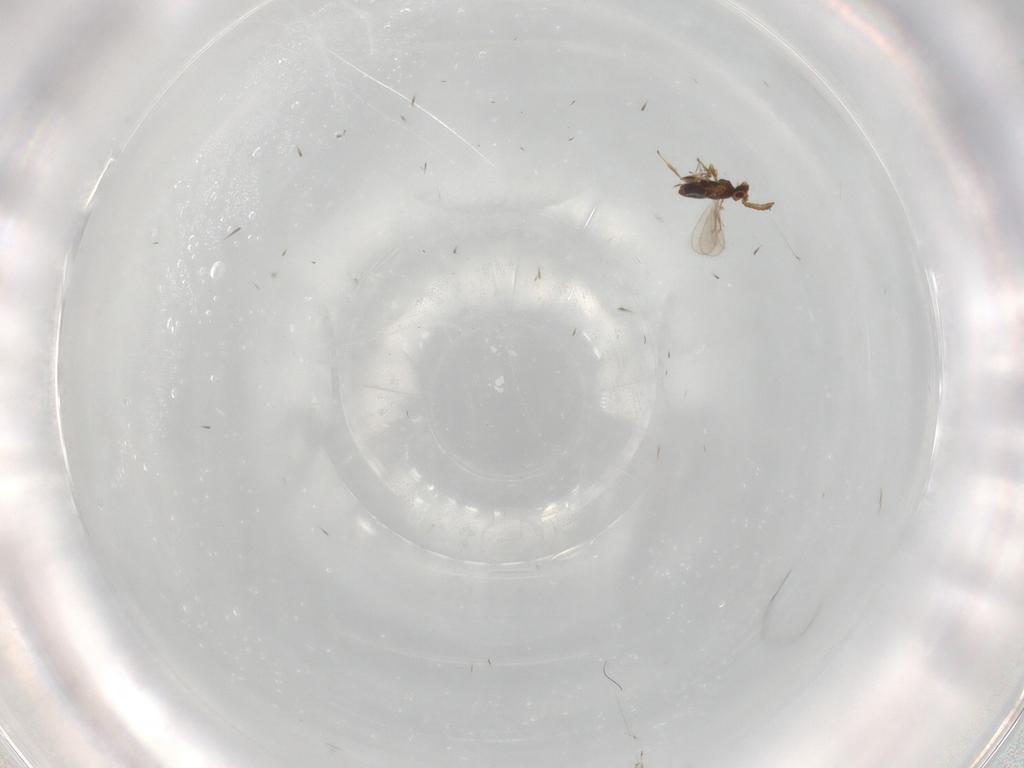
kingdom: Animalia
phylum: Arthropoda
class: Insecta
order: Hymenoptera
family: Aphelinidae
